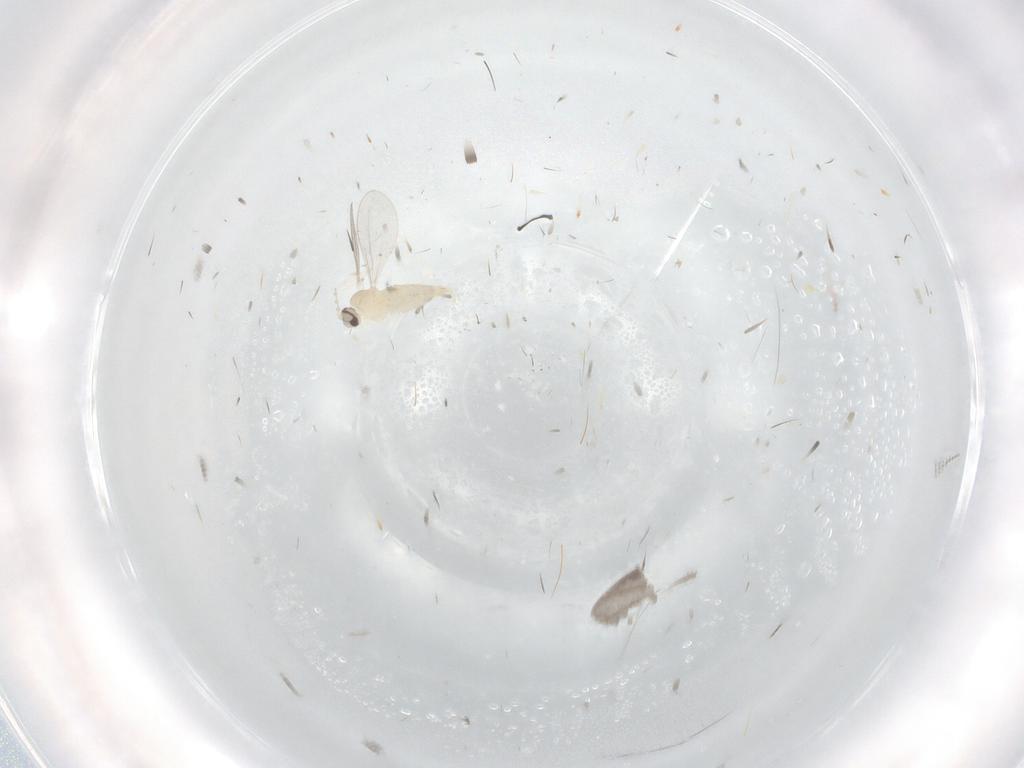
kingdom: Animalia
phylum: Arthropoda
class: Insecta
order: Diptera
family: Cecidomyiidae
